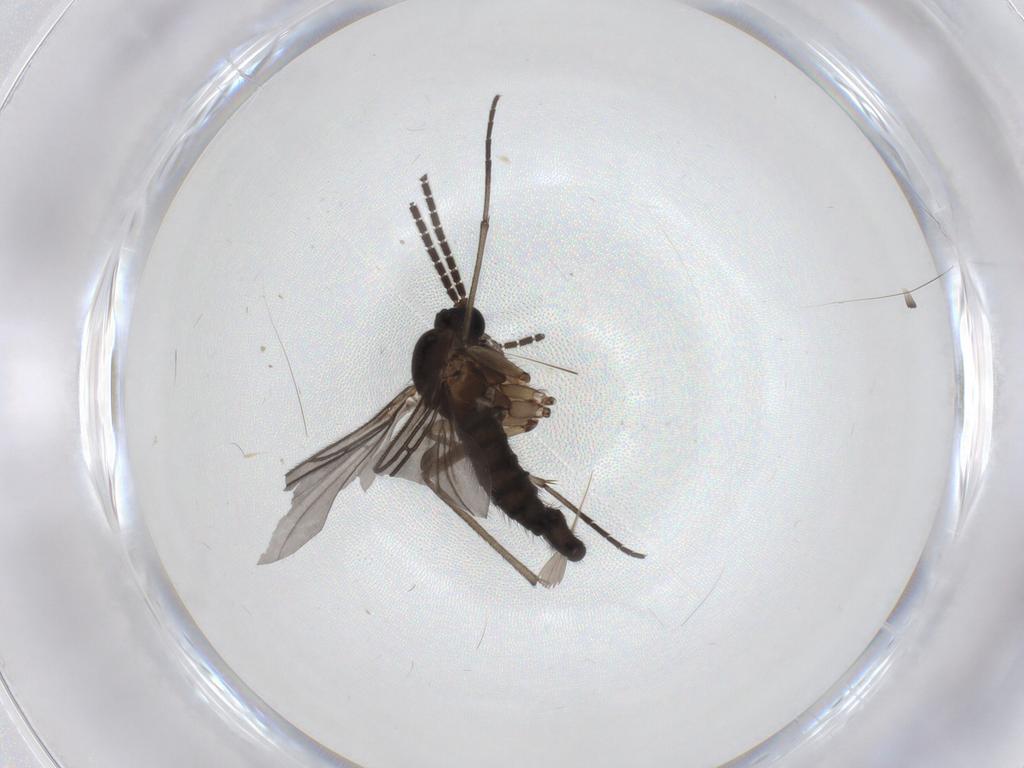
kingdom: Animalia
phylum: Arthropoda
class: Insecta
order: Diptera
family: Sciaridae
